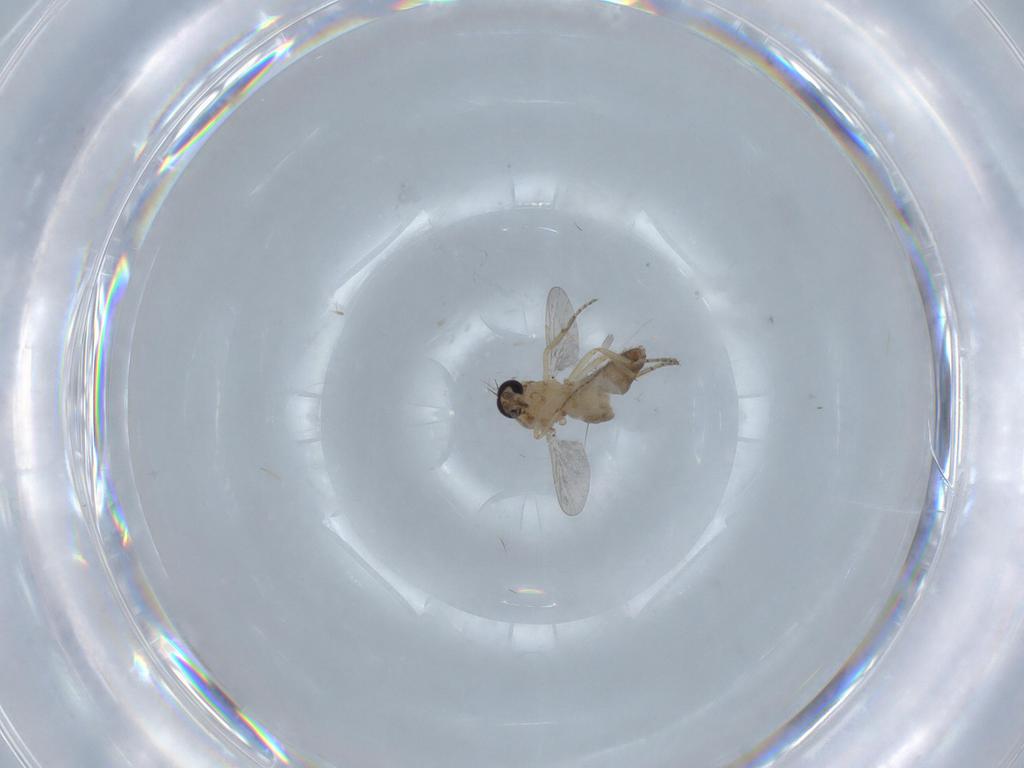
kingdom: Animalia
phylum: Arthropoda
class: Insecta
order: Diptera
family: Ceratopogonidae
